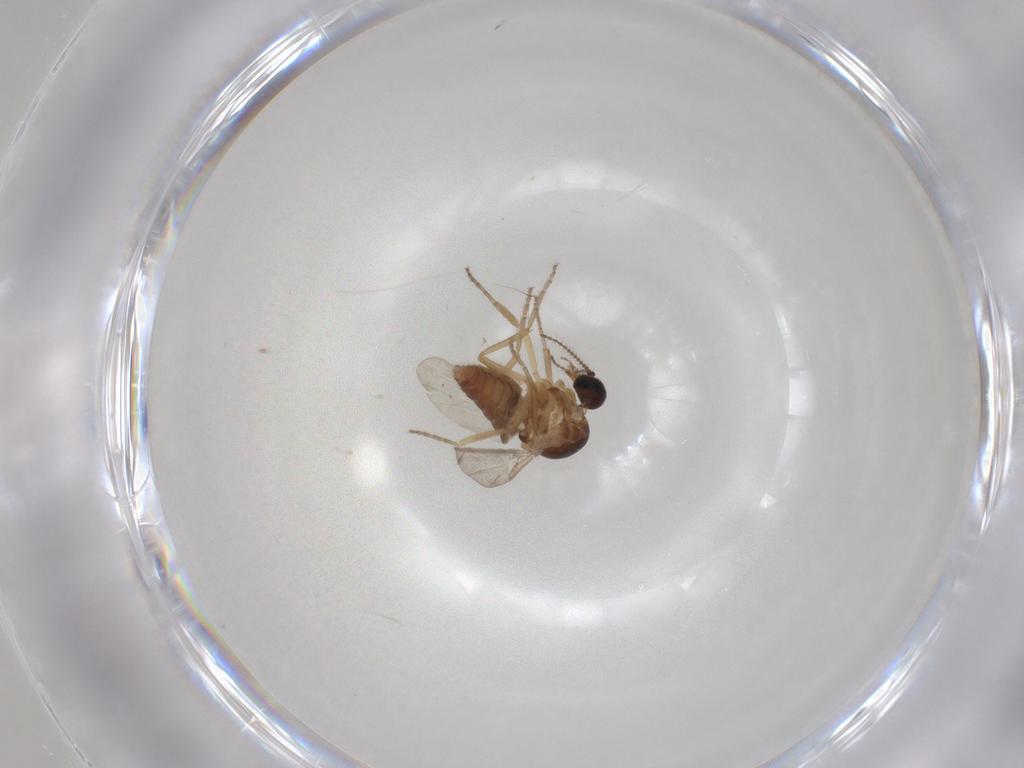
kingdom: Animalia
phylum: Arthropoda
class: Insecta
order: Diptera
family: Ceratopogonidae
